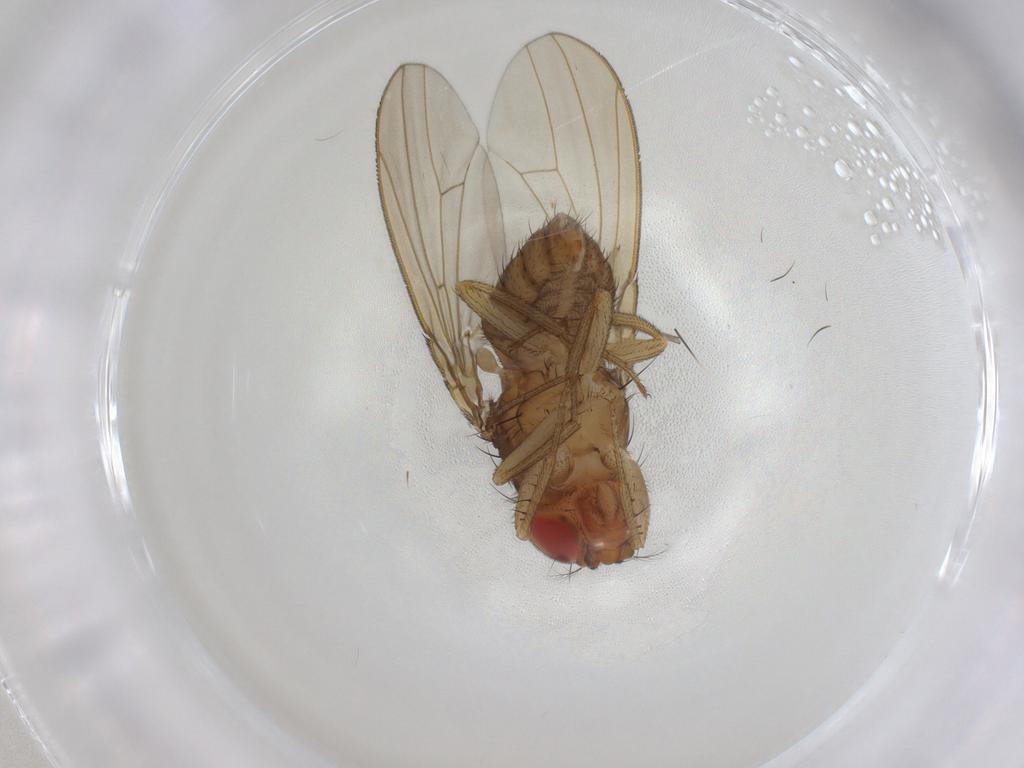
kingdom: Animalia
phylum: Arthropoda
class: Insecta
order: Diptera
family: Drosophilidae
